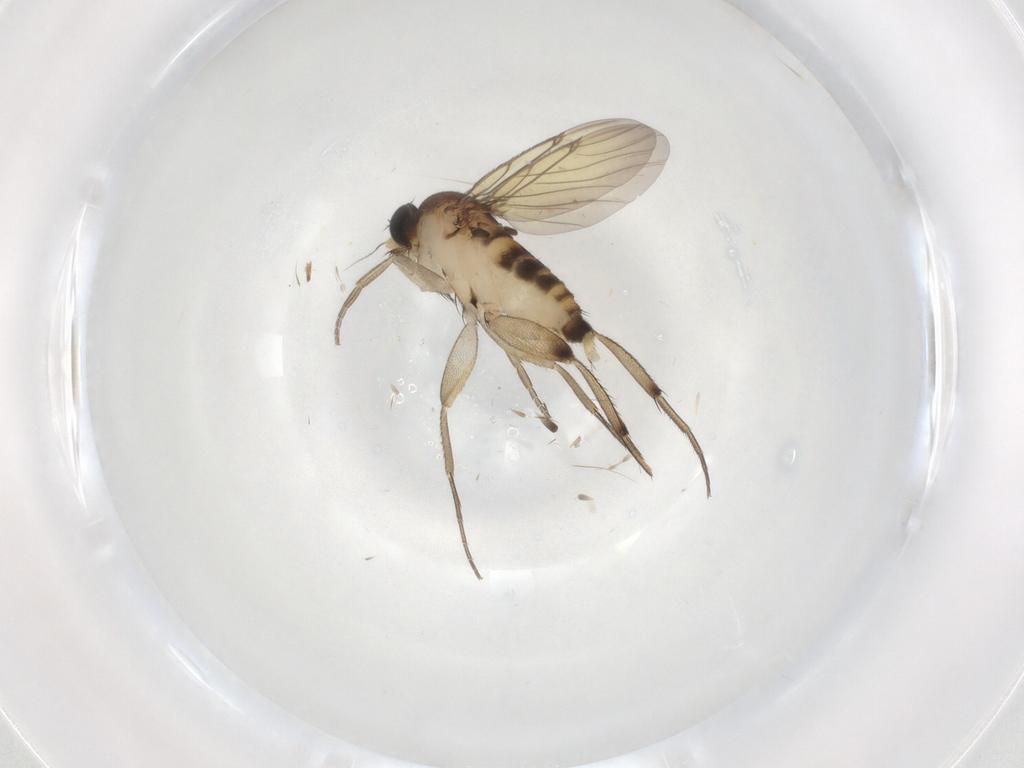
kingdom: Animalia
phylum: Arthropoda
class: Insecta
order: Diptera
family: Phoridae
